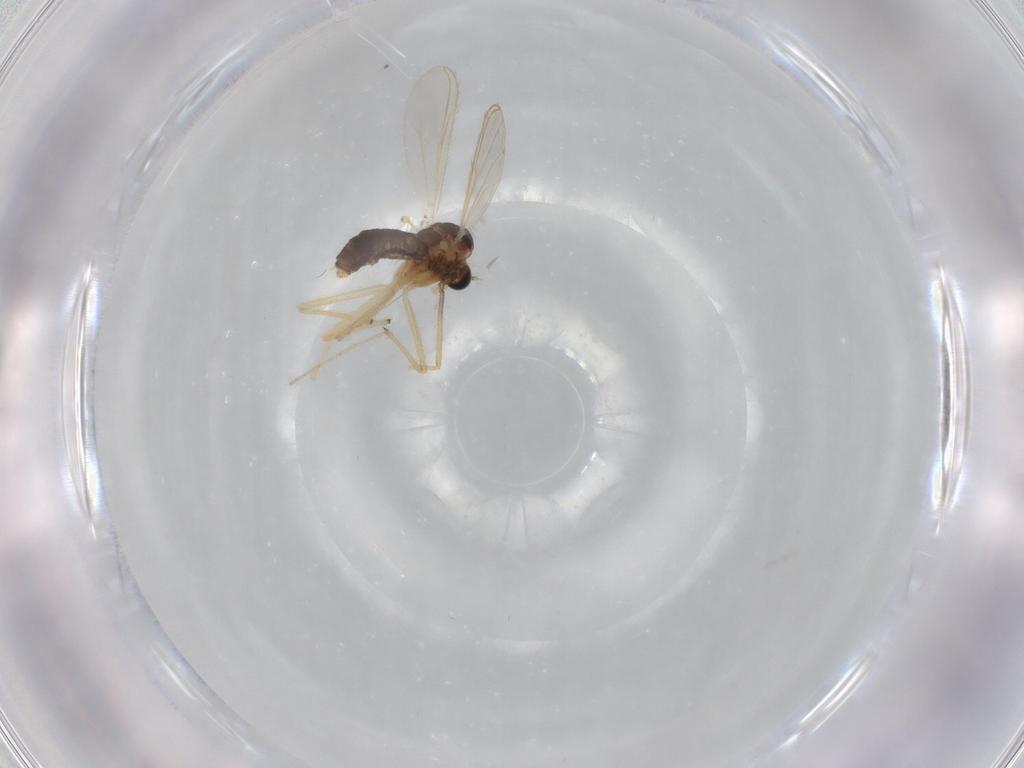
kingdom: Animalia
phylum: Arthropoda
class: Insecta
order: Diptera
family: Chironomidae
